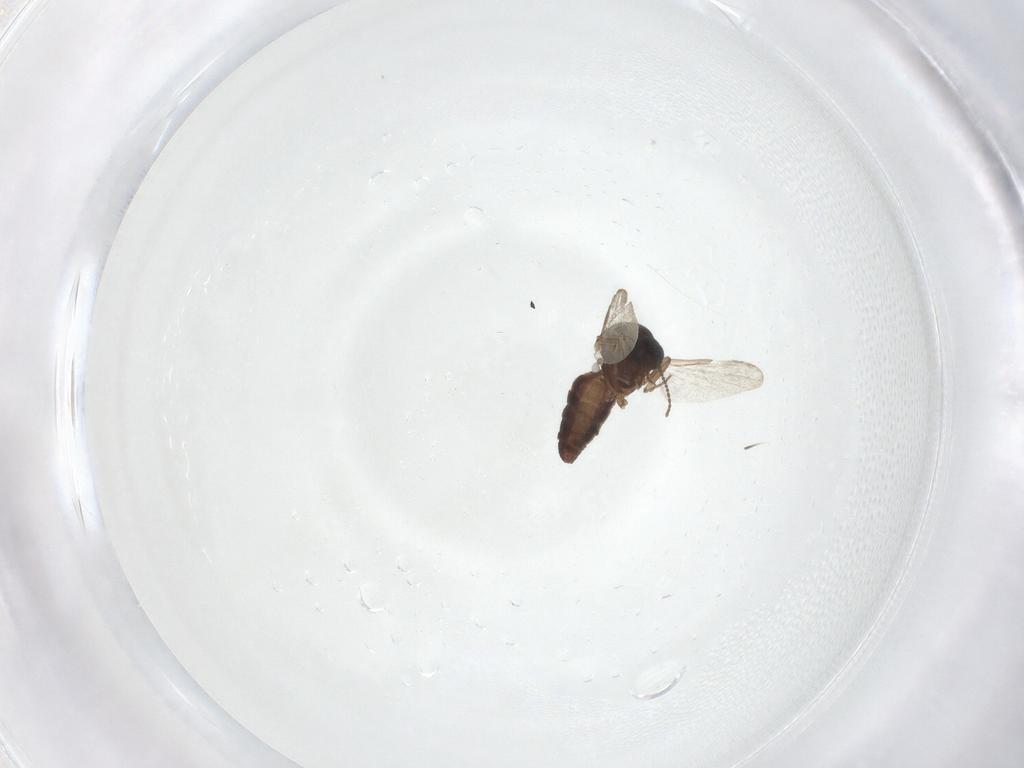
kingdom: Animalia
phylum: Arthropoda
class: Insecta
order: Diptera
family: Ceratopogonidae
